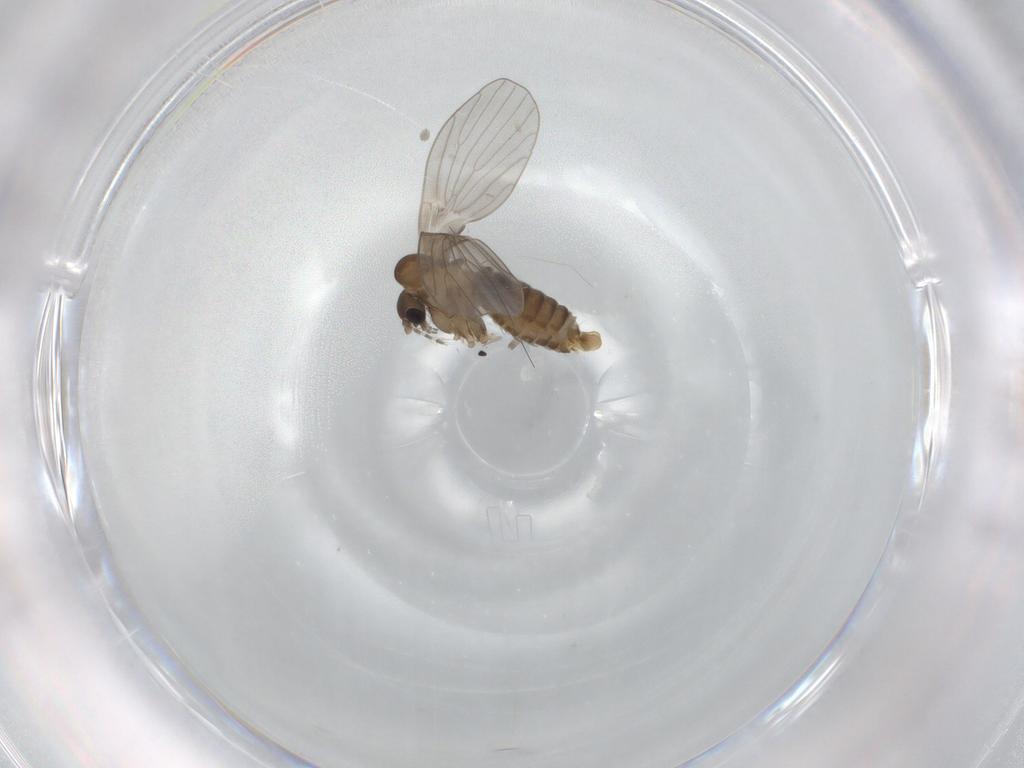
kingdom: Animalia
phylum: Arthropoda
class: Insecta
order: Diptera
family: Psychodidae
